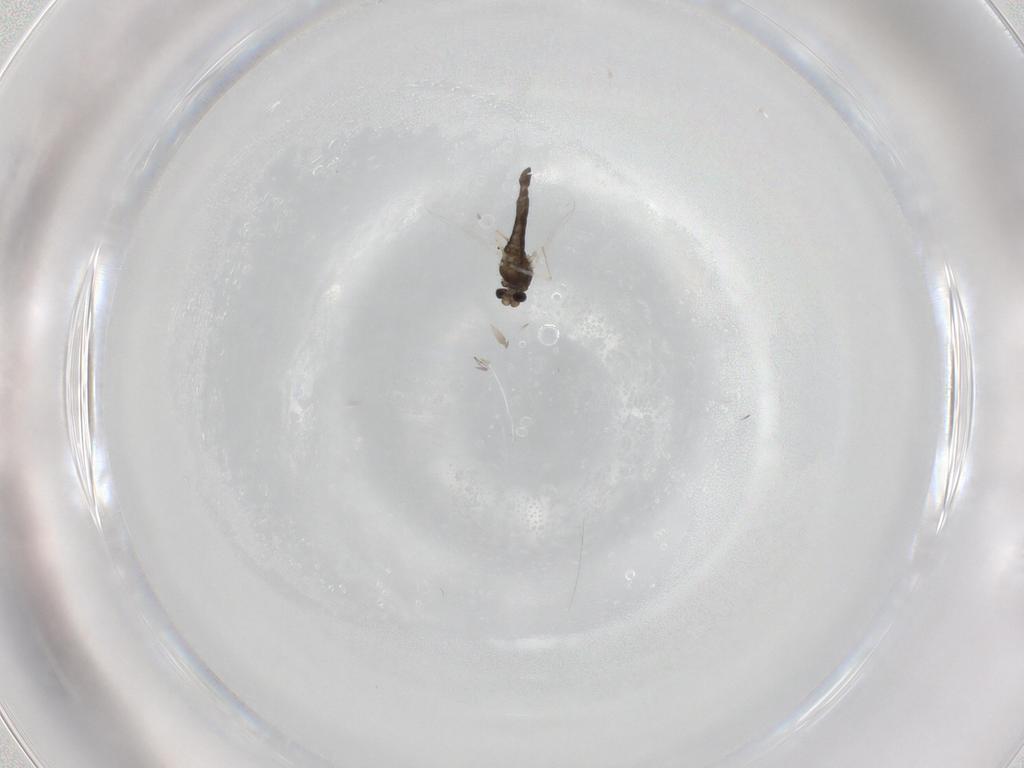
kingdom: Animalia
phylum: Arthropoda
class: Insecta
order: Diptera
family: Chironomidae
